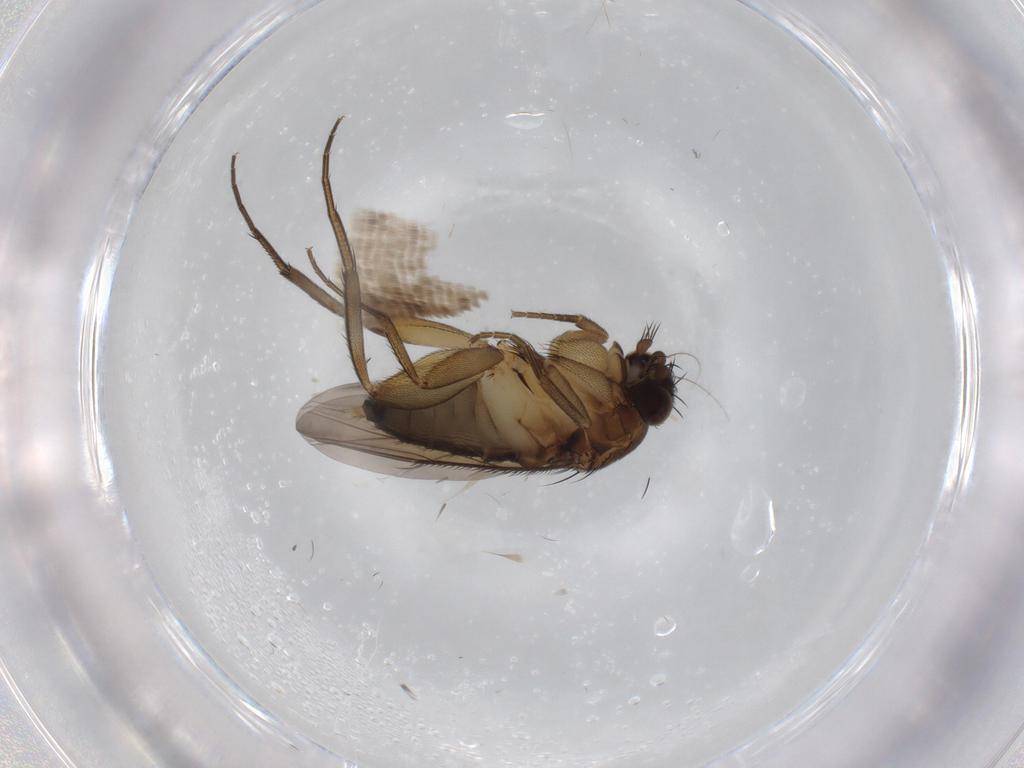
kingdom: Animalia
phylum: Arthropoda
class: Insecta
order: Diptera
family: Phoridae
